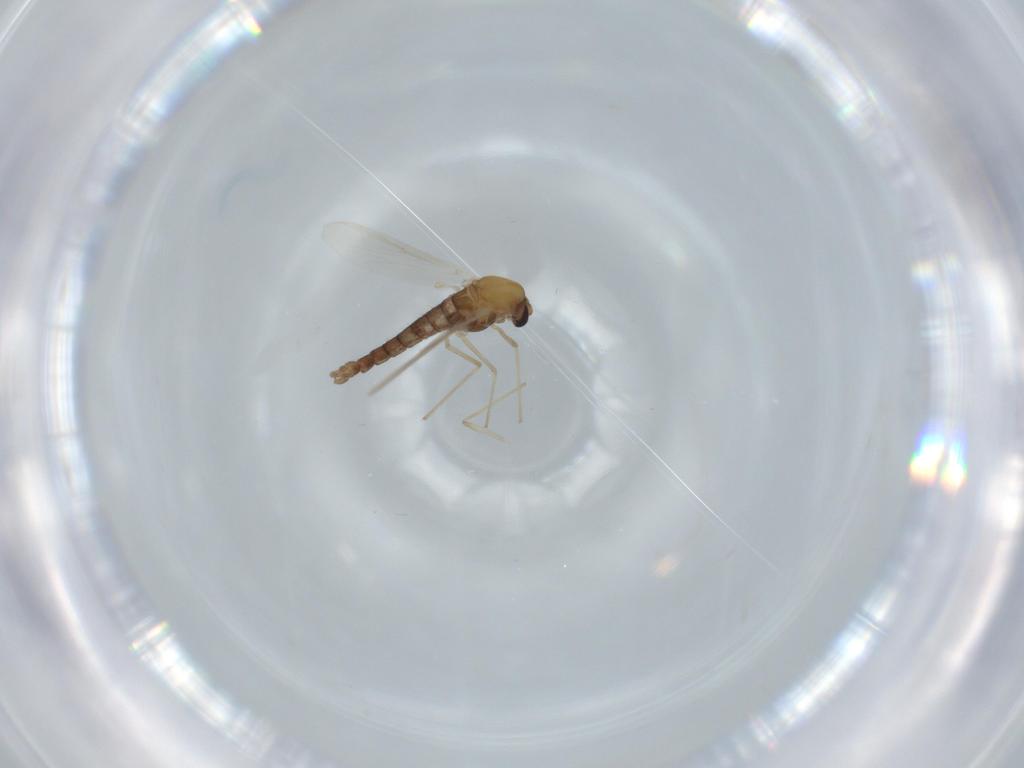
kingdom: Animalia
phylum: Arthropoda
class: Insecta
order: Diptera
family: Chironomidae
